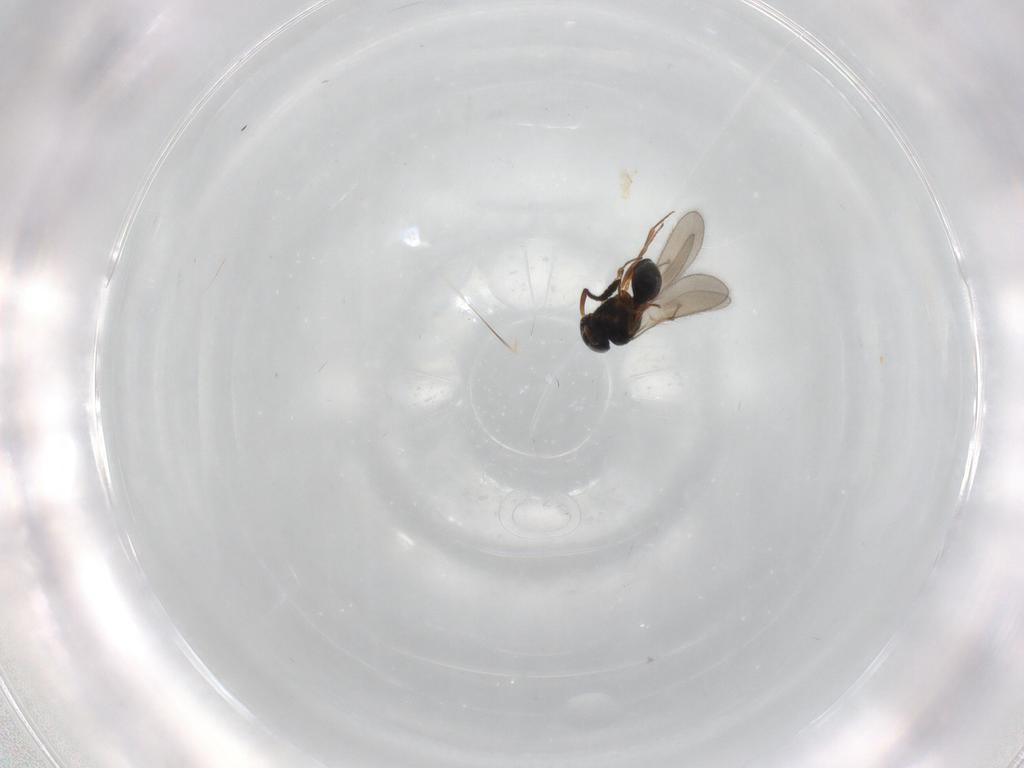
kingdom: Animalia
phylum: Arthropoda
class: Insecta
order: Hymenoptera
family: Scelionidae
